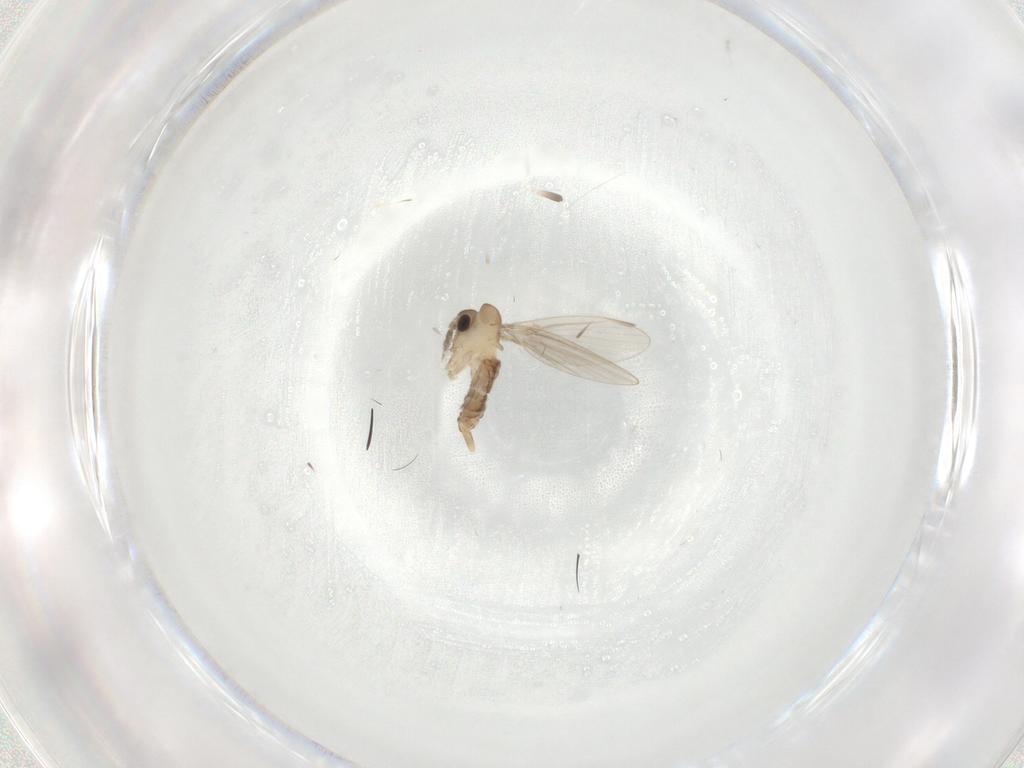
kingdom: Animalia
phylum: Arthropoda
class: Insecta
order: Diptera
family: Psychodidae
